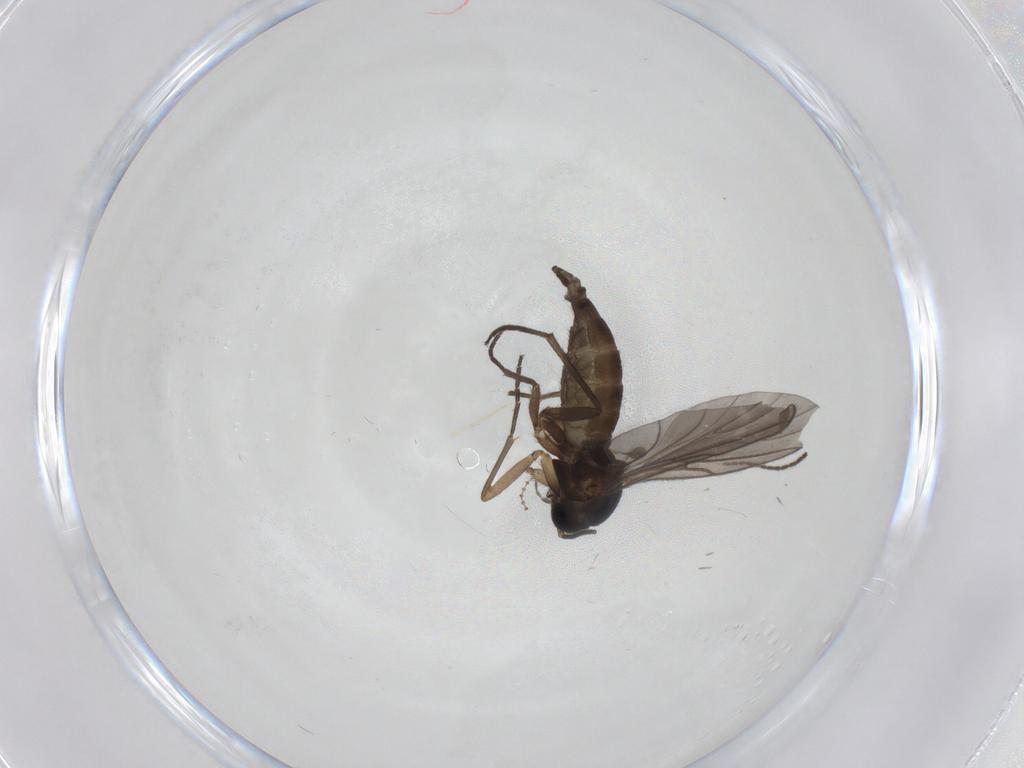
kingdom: Animalia
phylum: Arthropoda
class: Insecta
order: Diptera
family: Sciaridae
